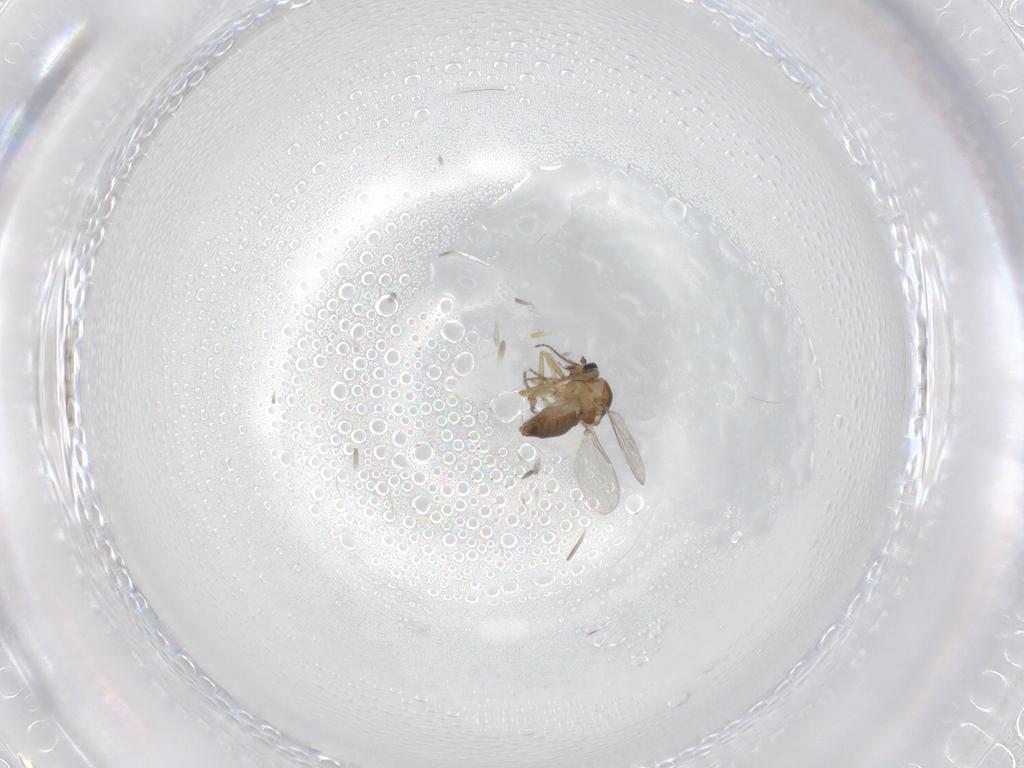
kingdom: Animalia
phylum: Arthropoda
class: Insecta
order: Diptera
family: Ceratopogonidae
